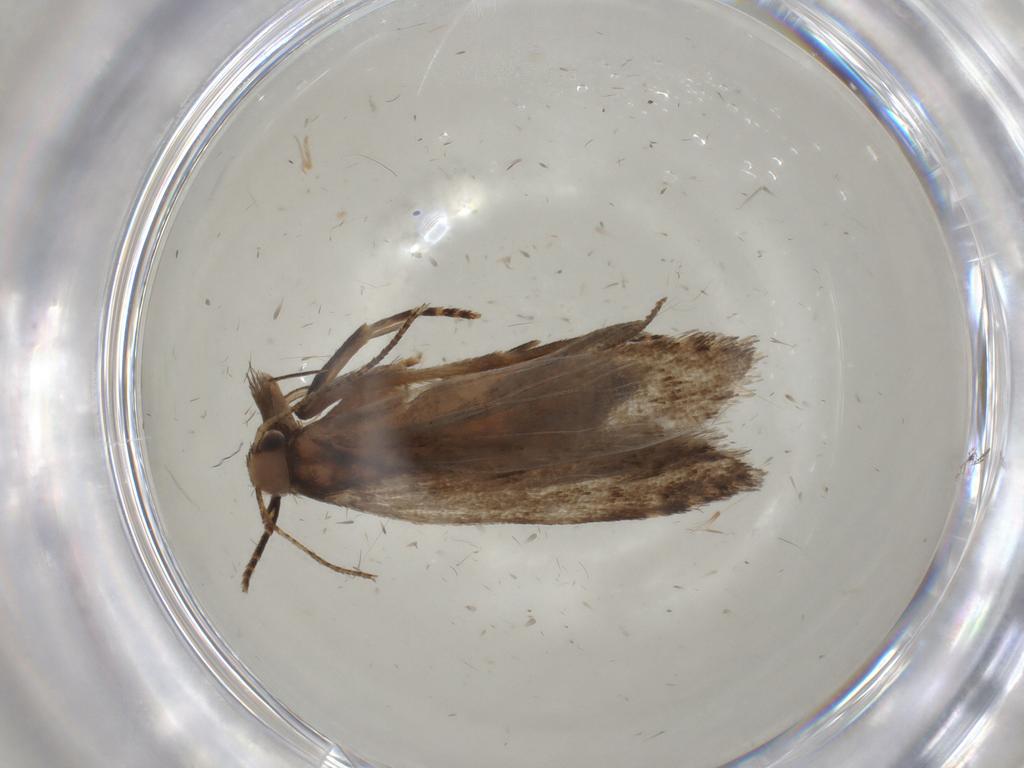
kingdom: Animalia
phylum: Arthropoda
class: Insecta
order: Lepidoptera
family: Gelechiidae
